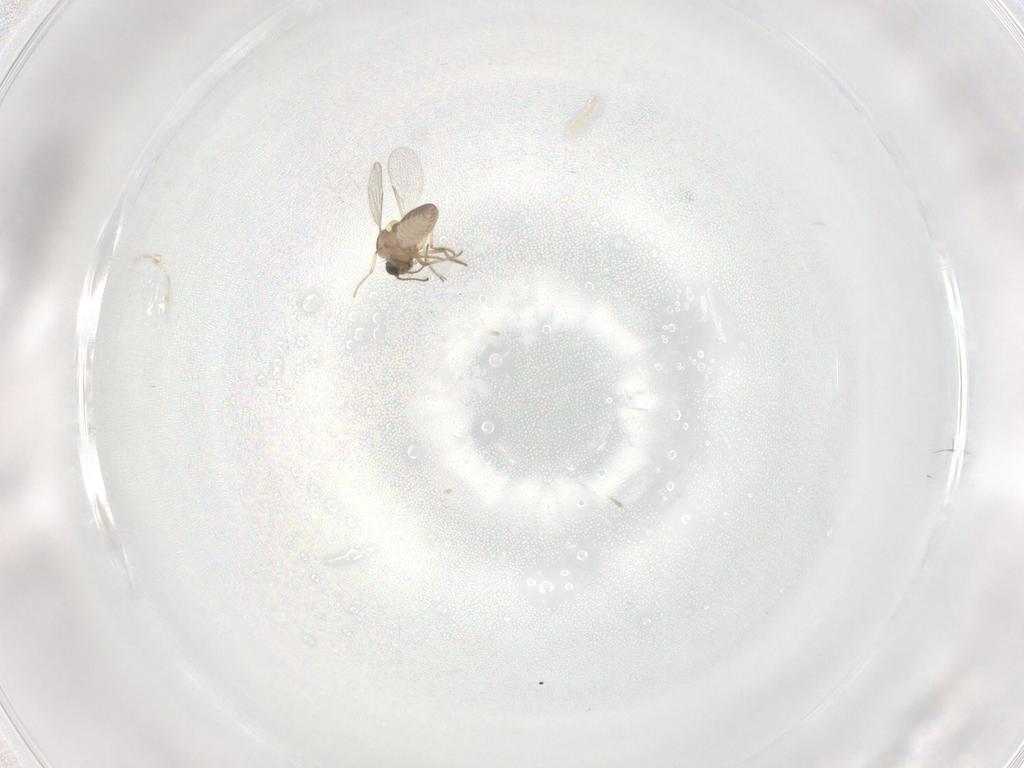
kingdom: Animalia
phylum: Arthropoda
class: Insecta
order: Diptera
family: Ceratopogonidae
